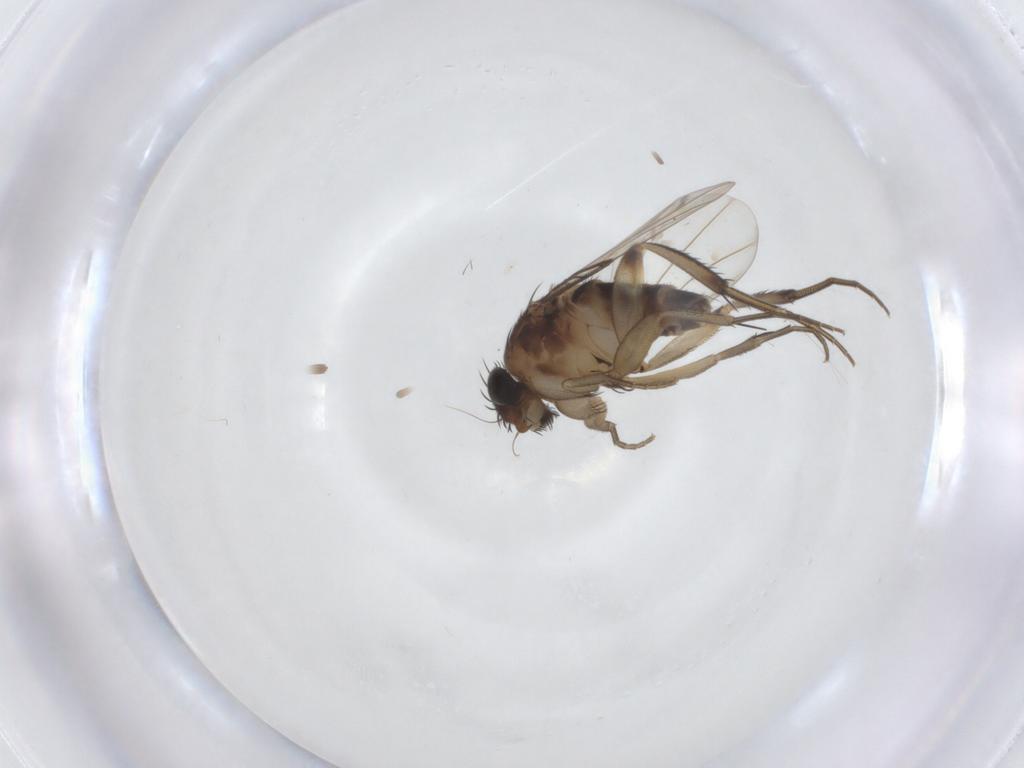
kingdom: Animalia
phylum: Arthropoda
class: Insecta
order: Diptera
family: Phoridae
